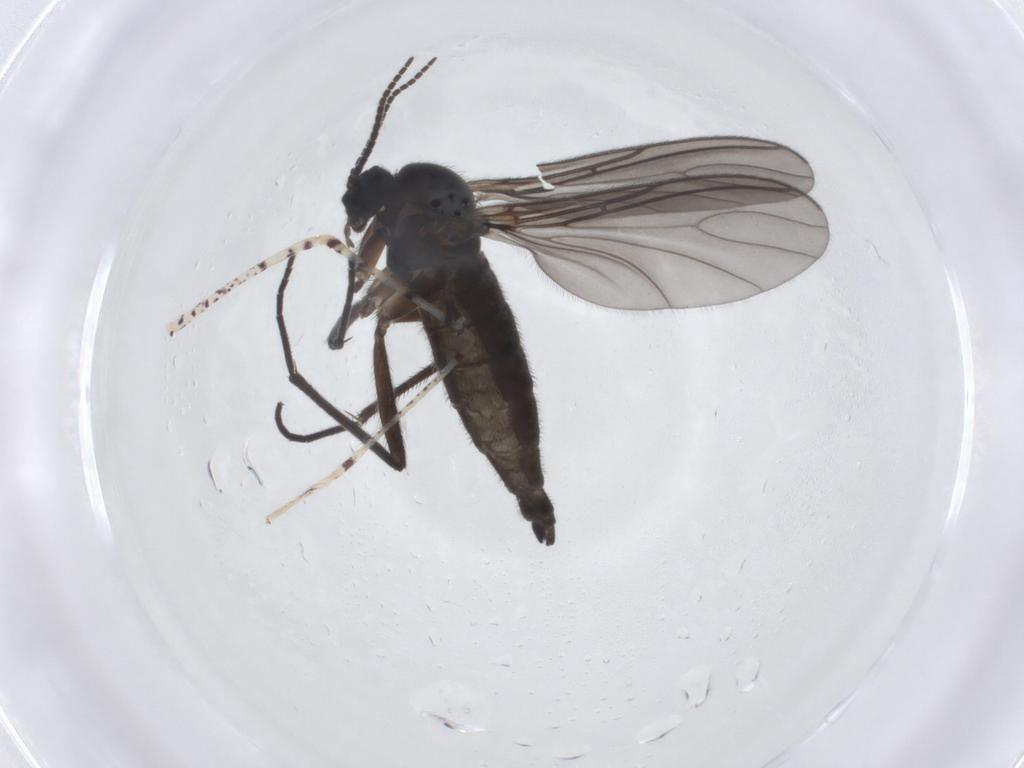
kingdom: Animalia
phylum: Arthropoda
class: Insecta
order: Diptera
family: Sciaridae
